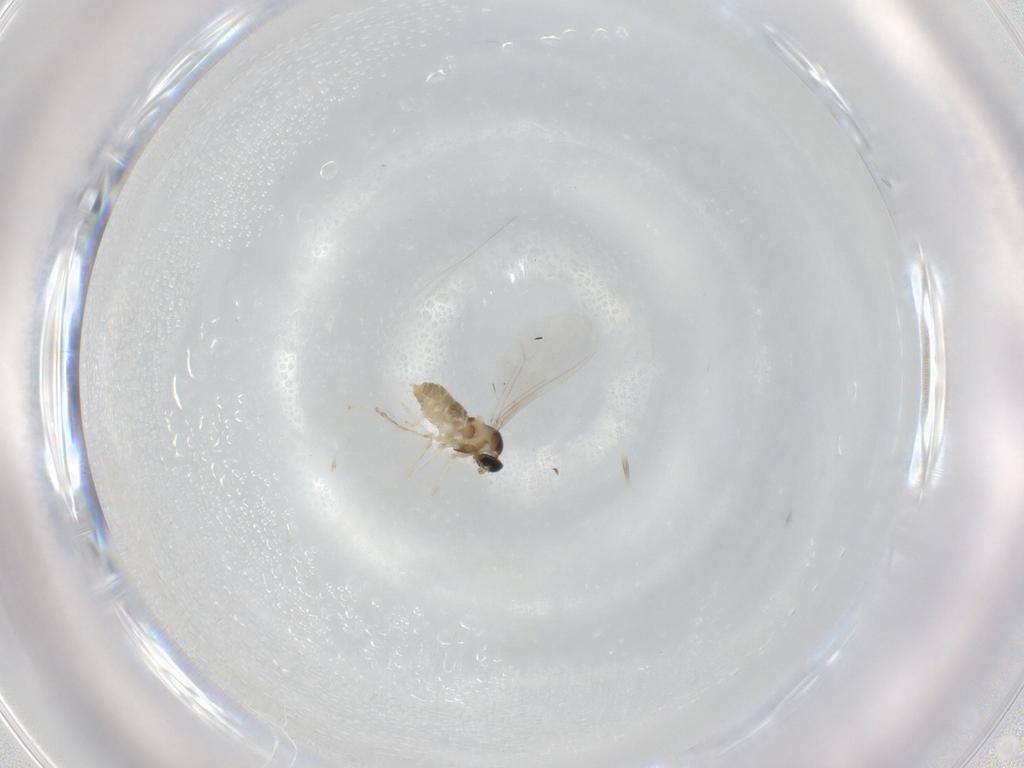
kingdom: Animalia
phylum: Arthropoda
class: Insecta
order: Diptera
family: Cecidomyiidae
